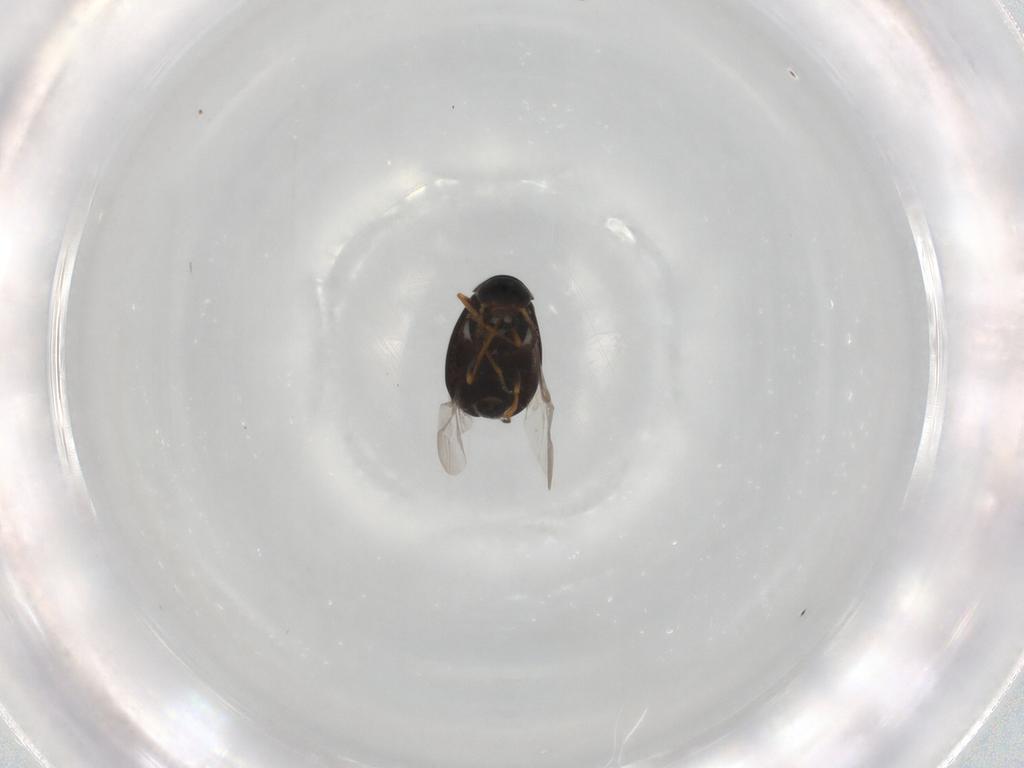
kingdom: Animalia
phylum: Arthropoda
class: Insecta
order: Coleoptera
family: Melyridae
